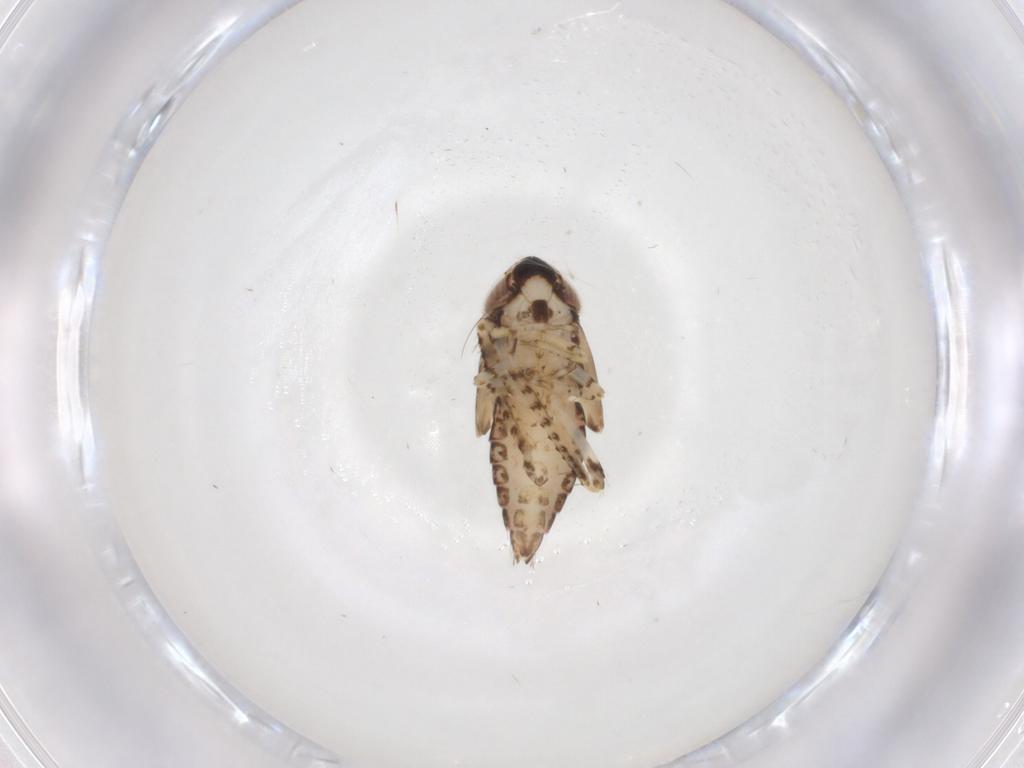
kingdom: Animalia
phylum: Arthropoda
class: Insecta
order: Hemiptera
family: Cicadellidae
